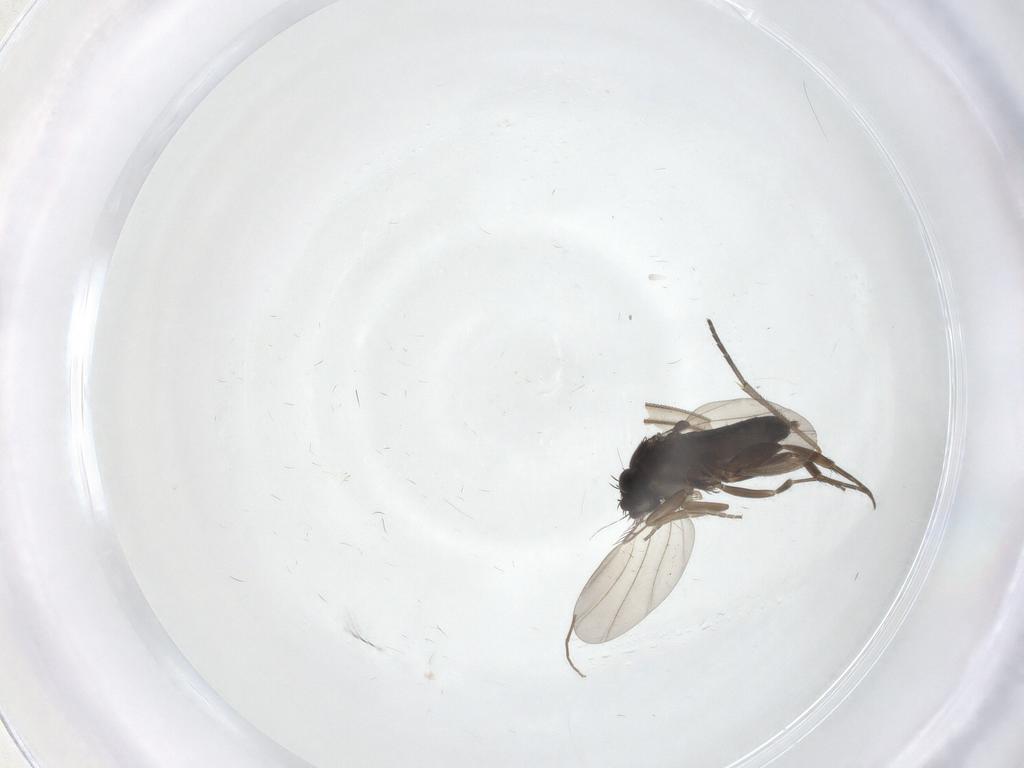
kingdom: Animalia
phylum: Arthropoda
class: Insecta
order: Diptera
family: Phoridae
